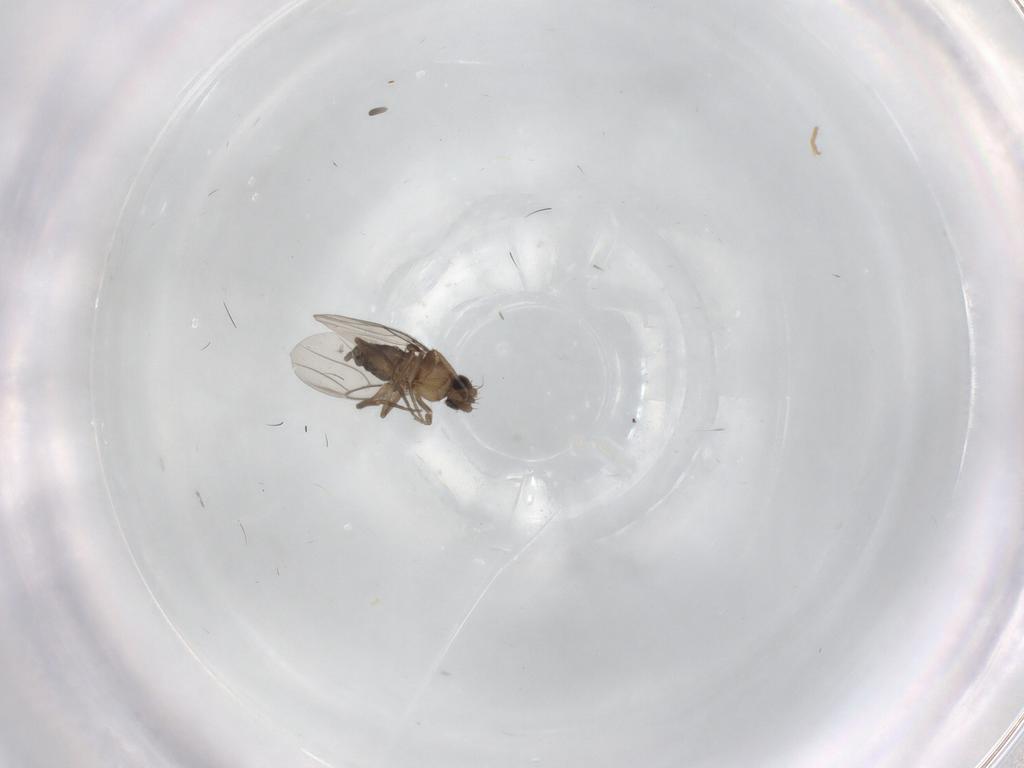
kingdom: Animalia
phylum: Arthropoda
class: Insecta
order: Diptera
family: Phoridae
